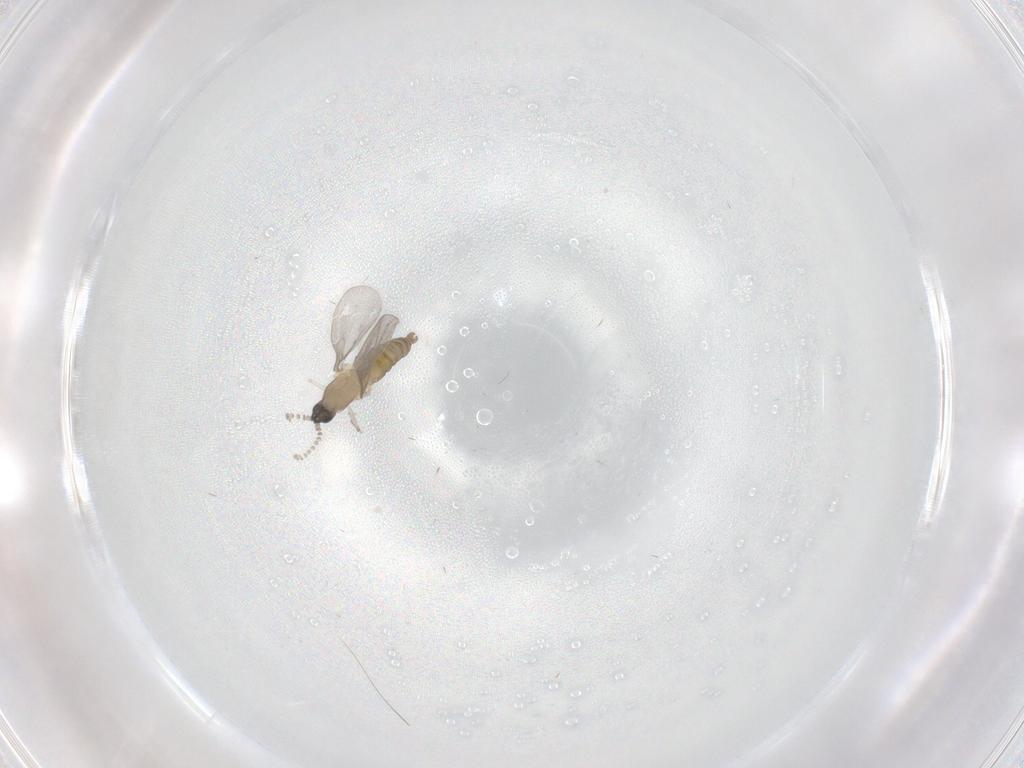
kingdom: Animalia
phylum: Arthropoda
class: Insecta
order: Diptera
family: Cecidomyiidae
